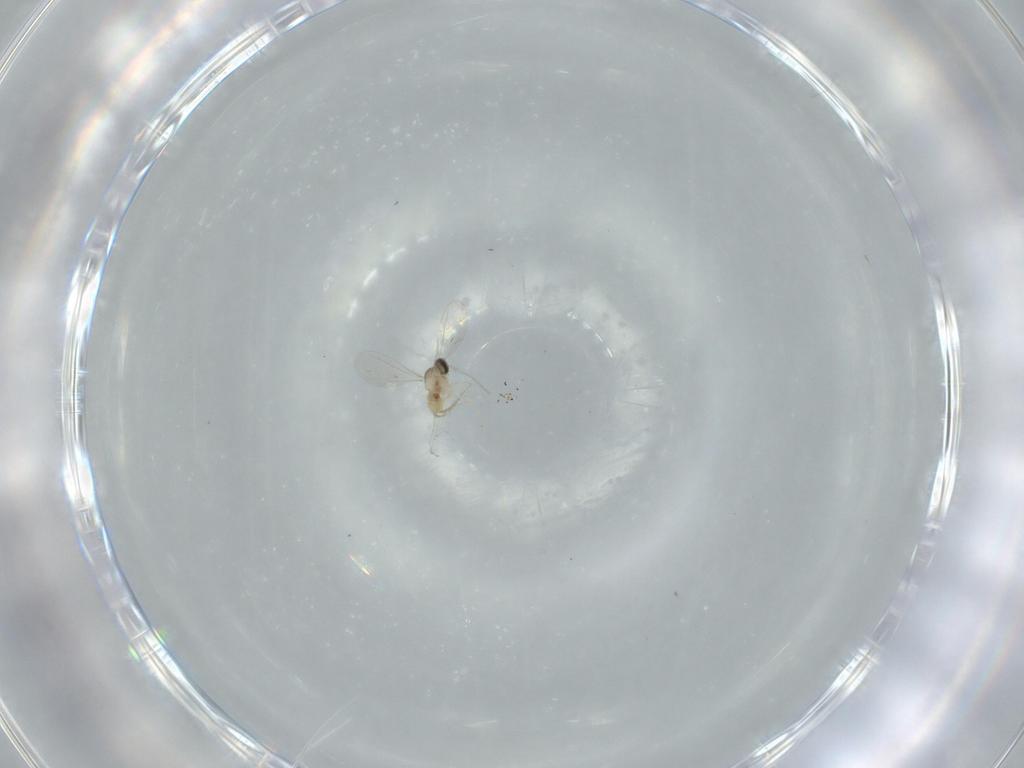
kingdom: Animalia
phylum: Arthropoda
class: Insecta
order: Diptera
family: Cecidomyiidae
